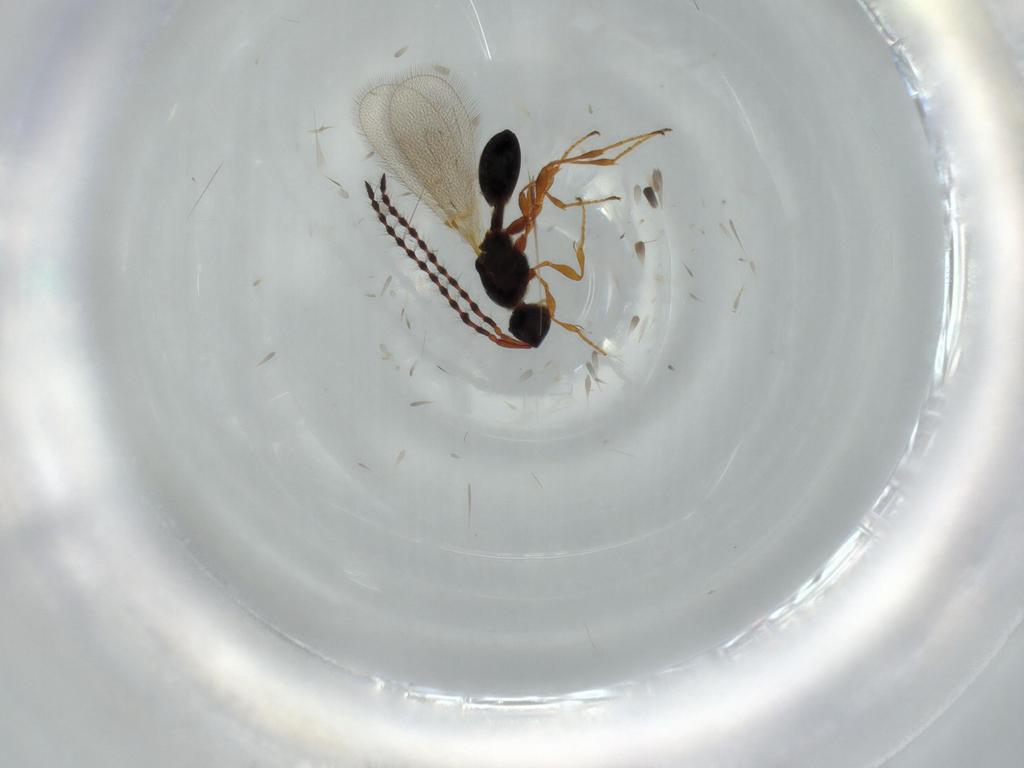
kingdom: Animalia
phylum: Arthropoda
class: Insecta
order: Hymenoptera
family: Diapriidae
